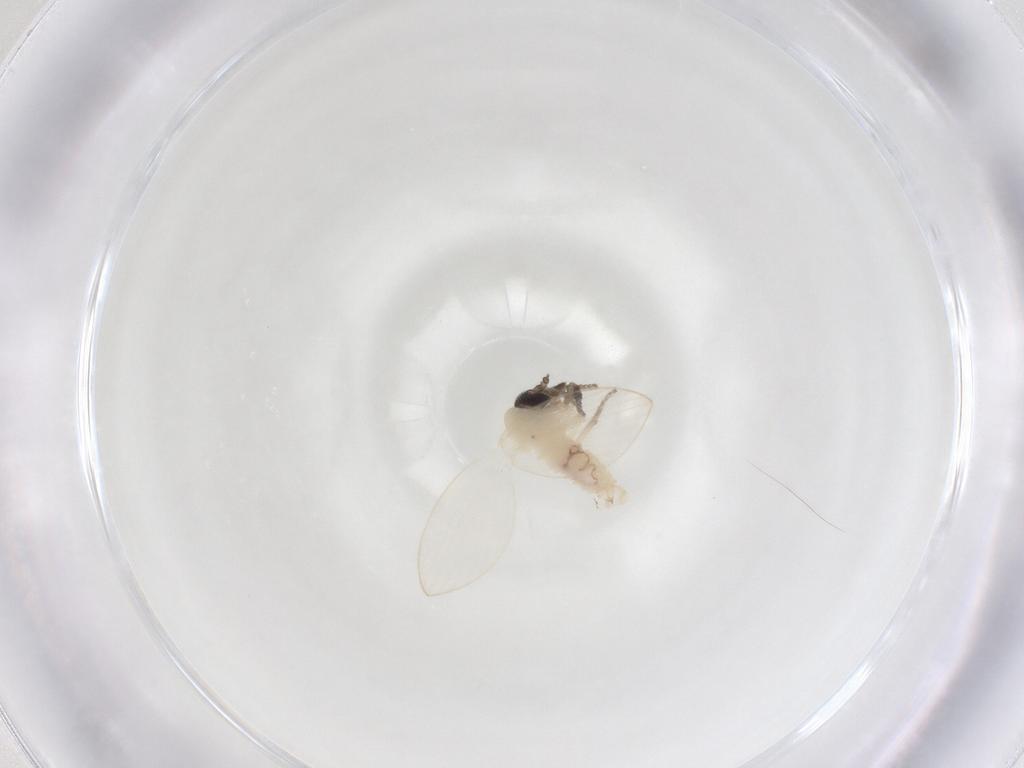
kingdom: Animalia
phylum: Arthropoda
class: Insecta
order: Diptera
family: Psychodidae
